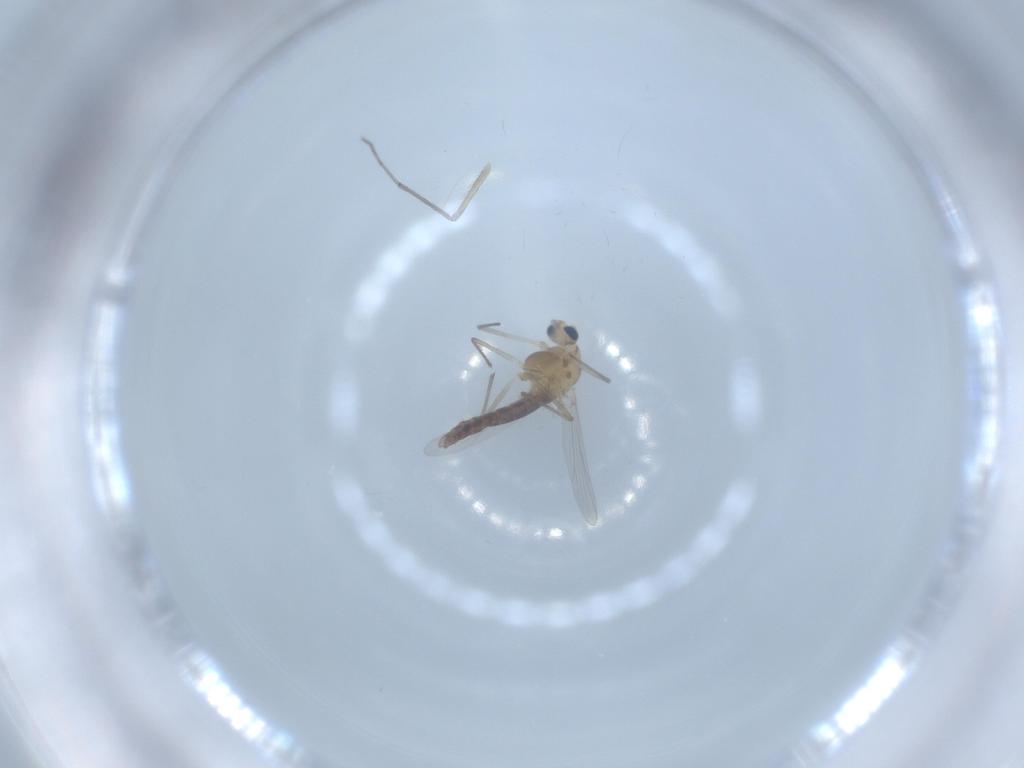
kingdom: Animalia
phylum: Arthropoda
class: Insecta
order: Diptera
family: Chironomidae
